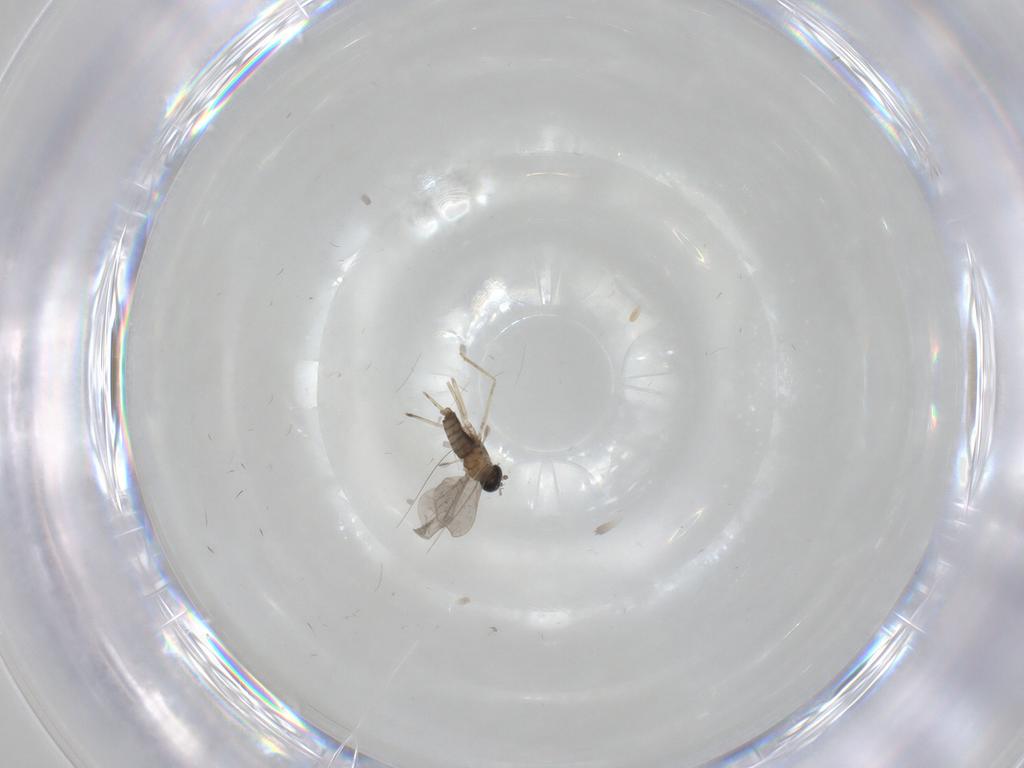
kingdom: Animalia
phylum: Arthropoda
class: Insecta
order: Diptera
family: Cecidomyiidae
